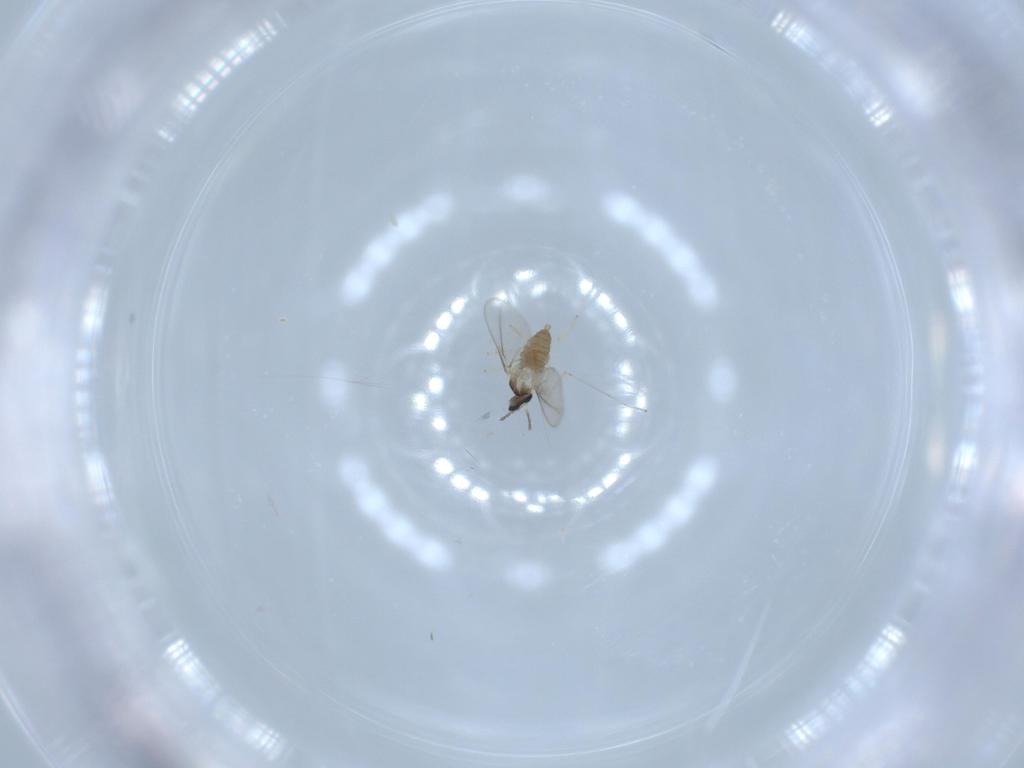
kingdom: Animalia
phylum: Arthropoda
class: Insecta
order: Diptera
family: Cecidomyiidae
